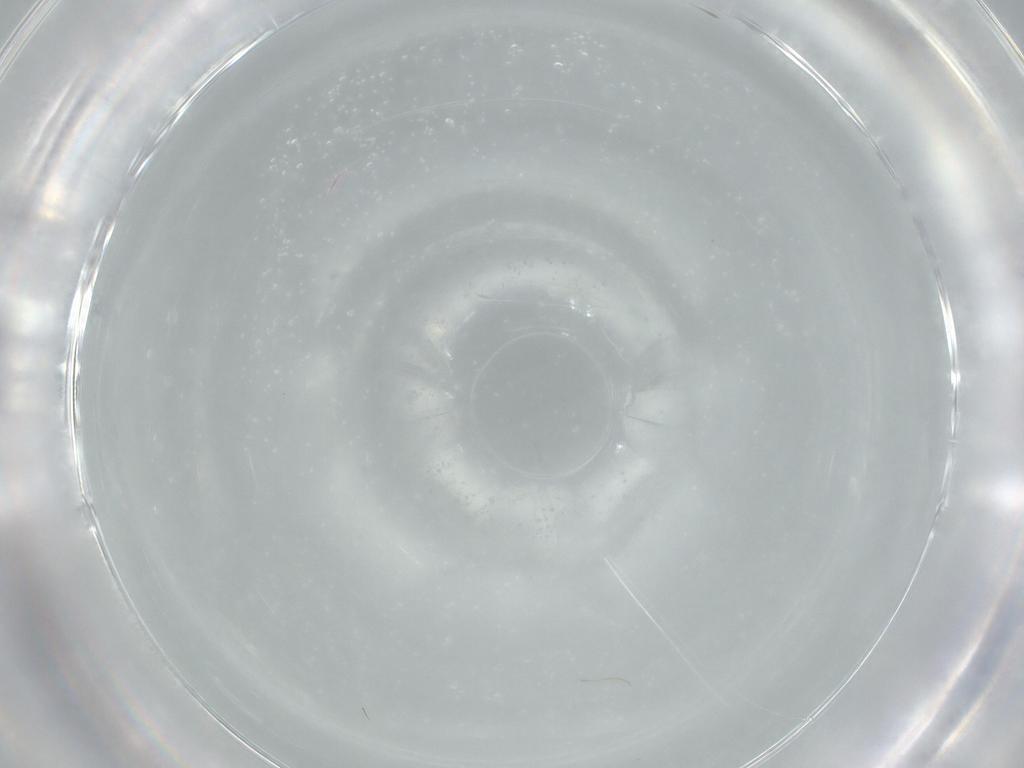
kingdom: Animalia
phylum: Arthropoda
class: Insecta
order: Hymenoptera
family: Trichogrammatidae
